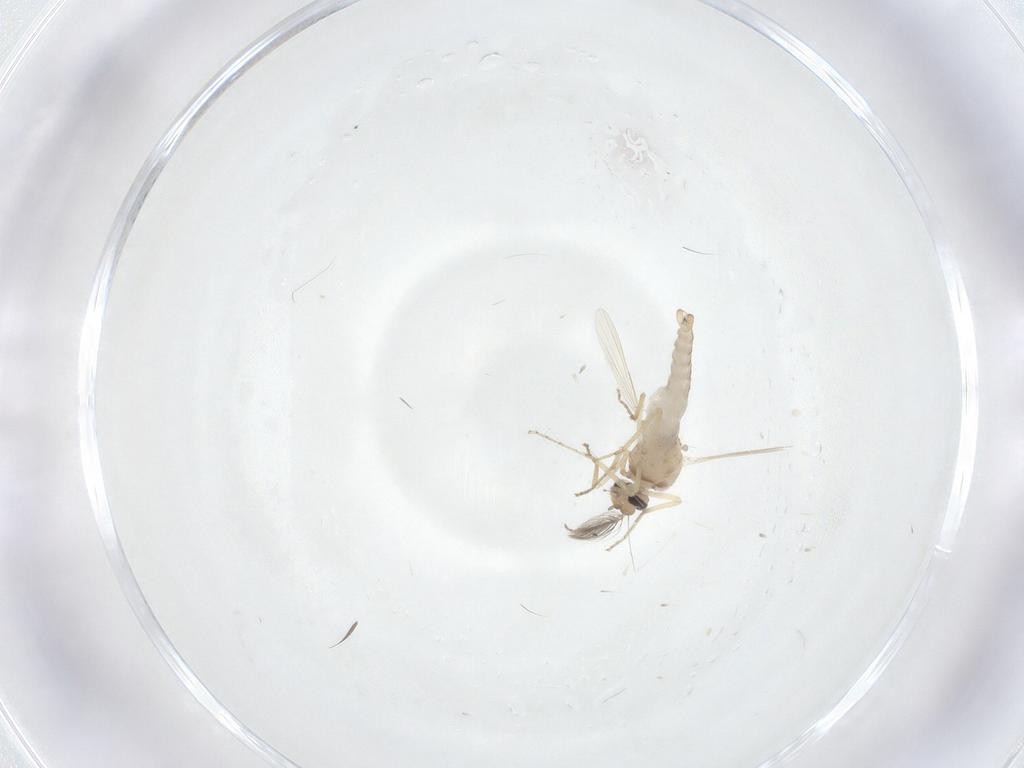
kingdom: Animalia
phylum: Arthropoda
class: Insecta
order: Diptera
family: Ceratopogonidae
